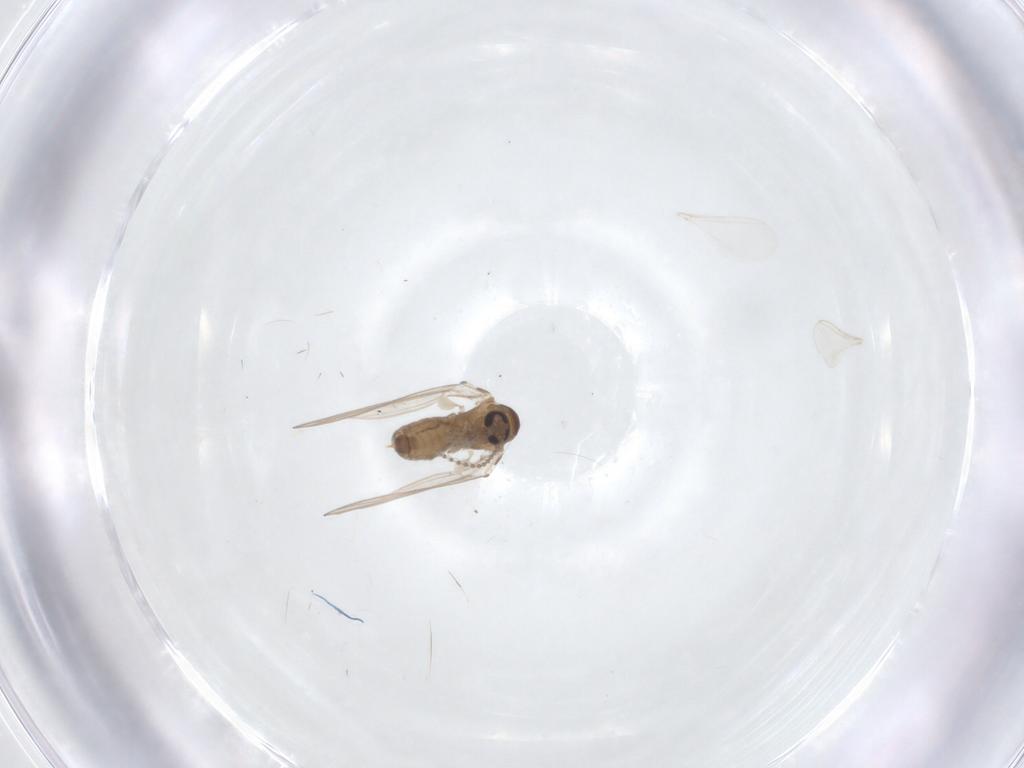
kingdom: Animalia
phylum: Arthropoda
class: Insecta
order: Diptera
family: Psychodidae
